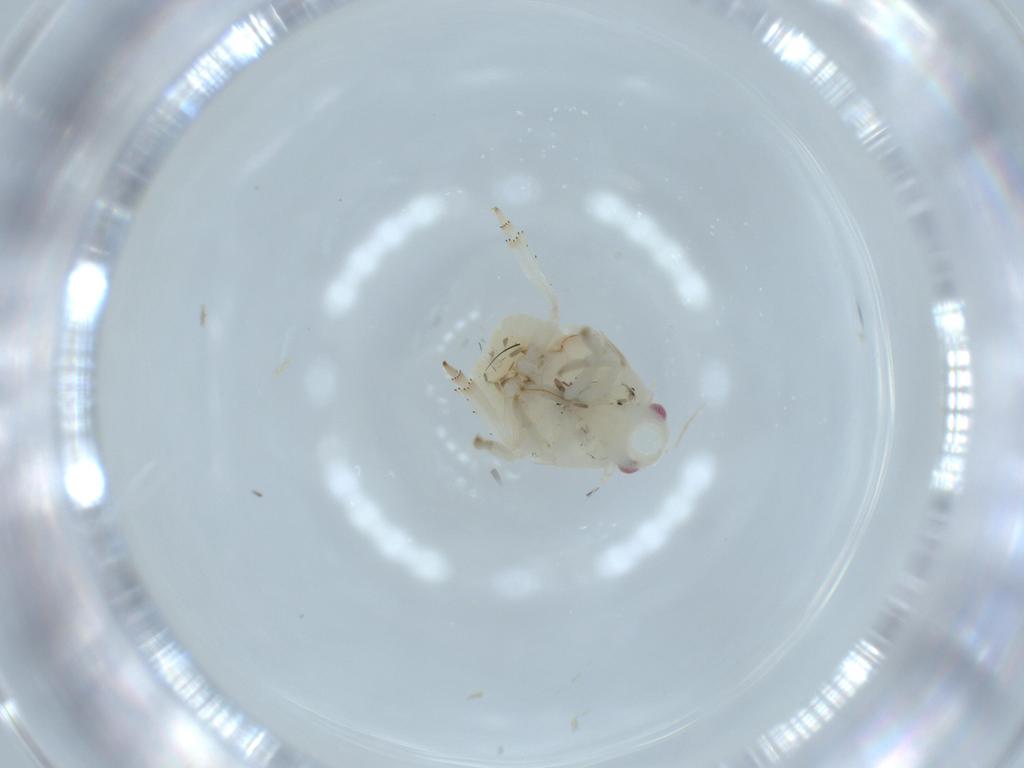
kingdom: Animalia
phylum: Arthropoda
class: Insecta
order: Hemiptera
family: Flatidae
